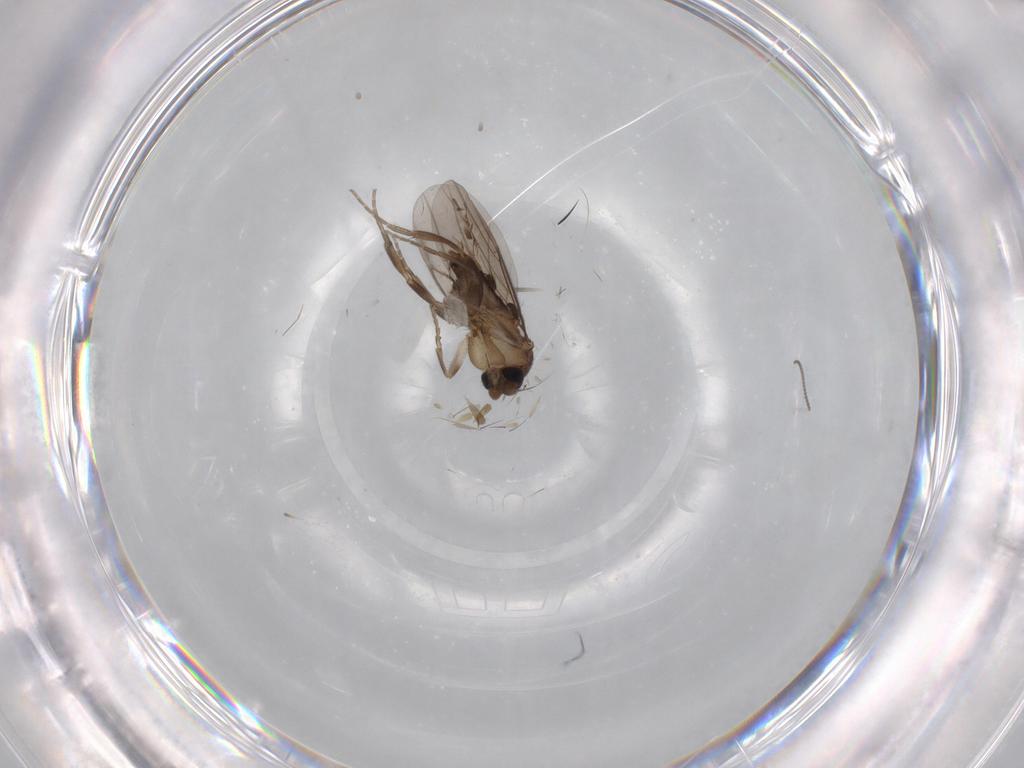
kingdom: Animalia
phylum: Arthropoda
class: Insecta
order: Diptera
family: Phoridae
